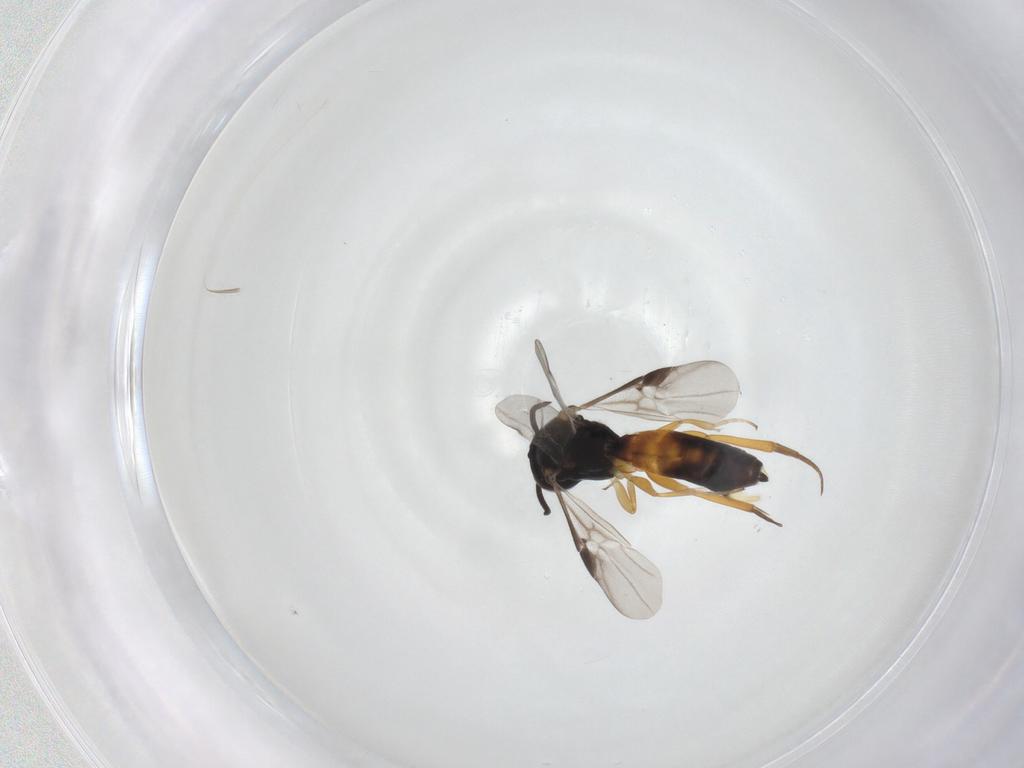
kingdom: Animalia
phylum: Arthropoda
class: Insecta
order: Hymenoptera
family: Braconidae
